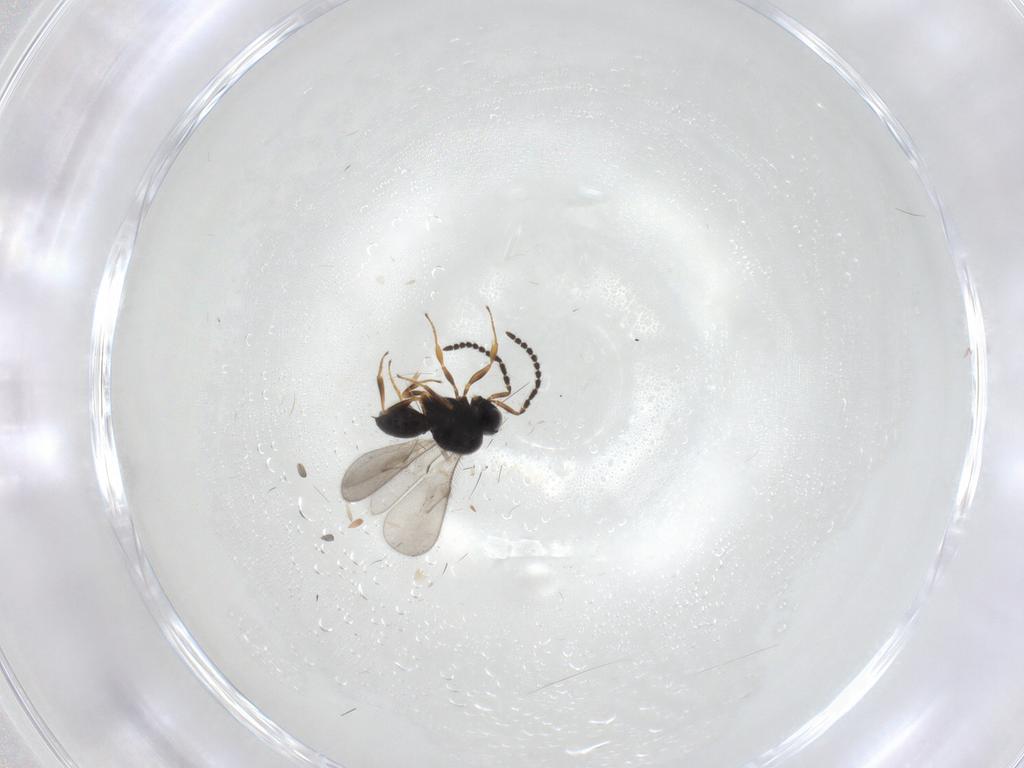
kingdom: Animalia
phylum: Arthropoda
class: Insecta
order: Hymenoptera
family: Scelionidae
